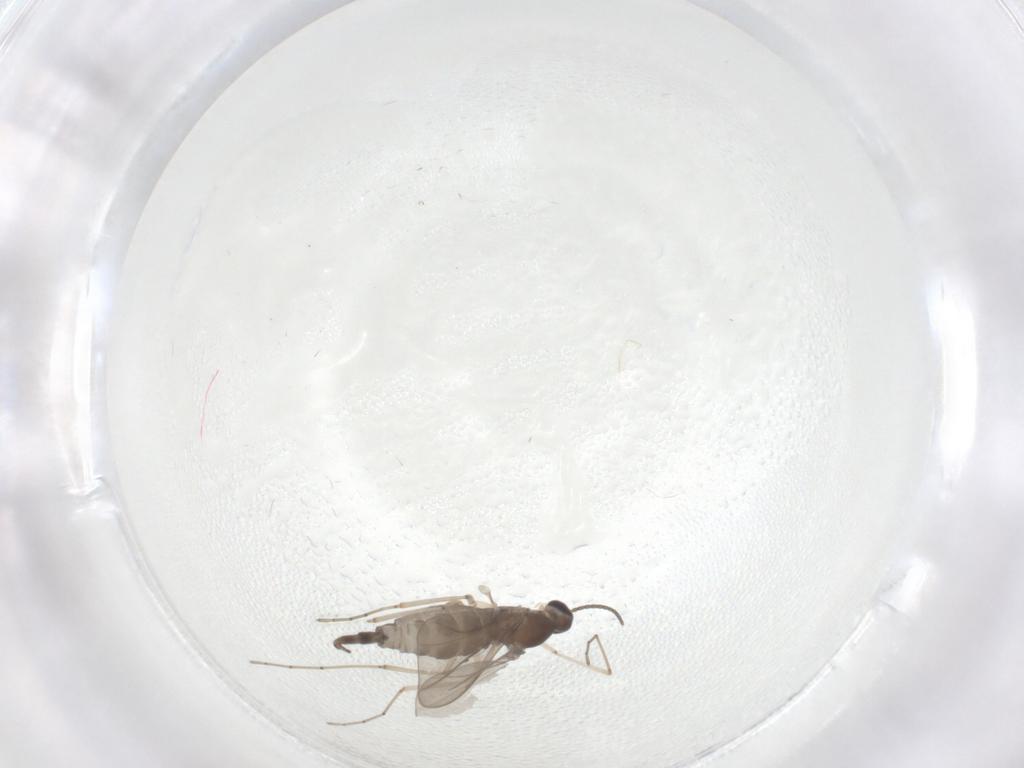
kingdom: Animalia
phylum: Arthropoda
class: Insecta
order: Diptera
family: Cecidomyiidae
